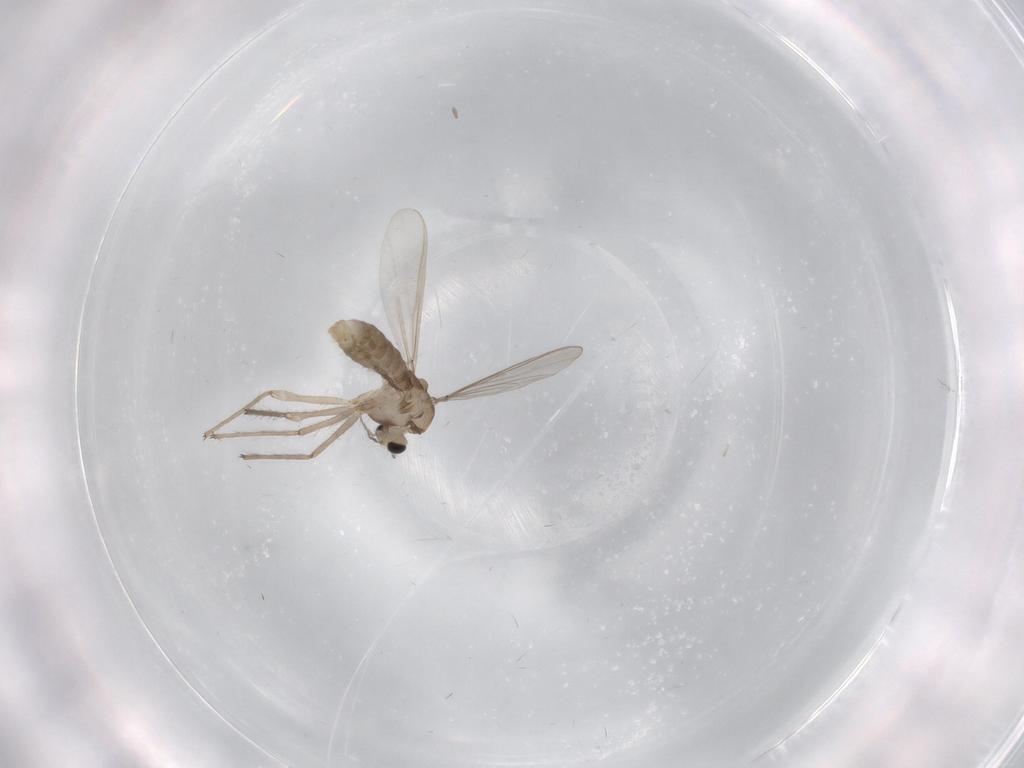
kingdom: Animalia
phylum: Arthropoda
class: Insecta
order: Diptera
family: Chironomidae
